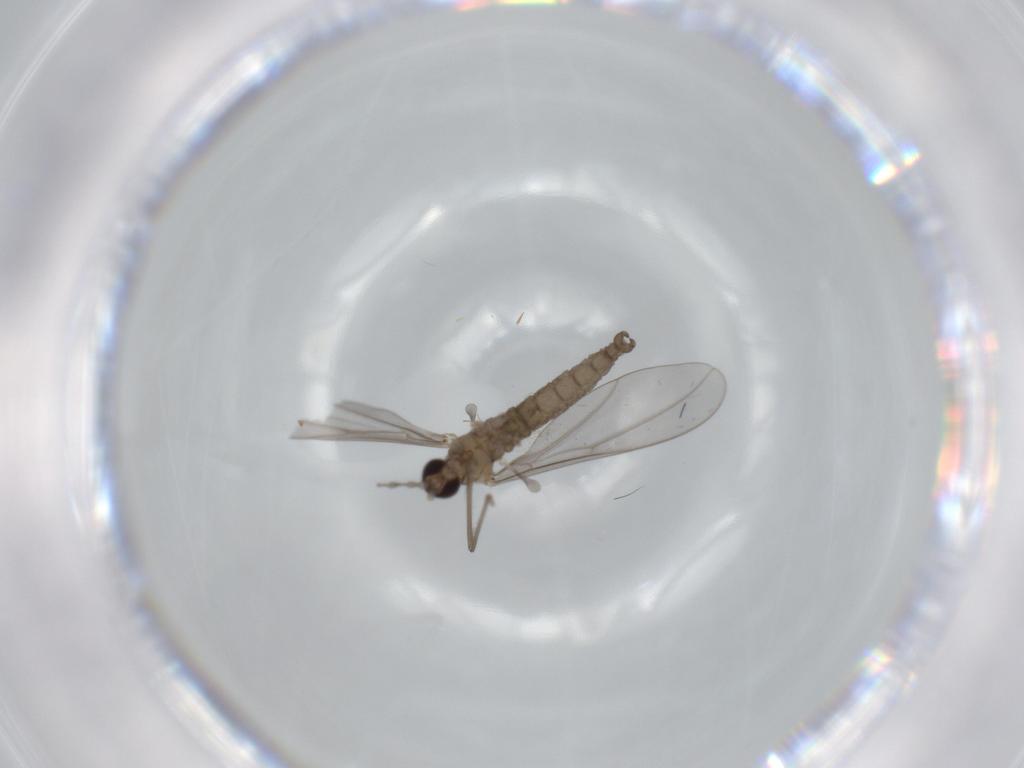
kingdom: Animalia
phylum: Arthropoda
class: Insecta
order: Diptera
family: Cecidomyiidae
